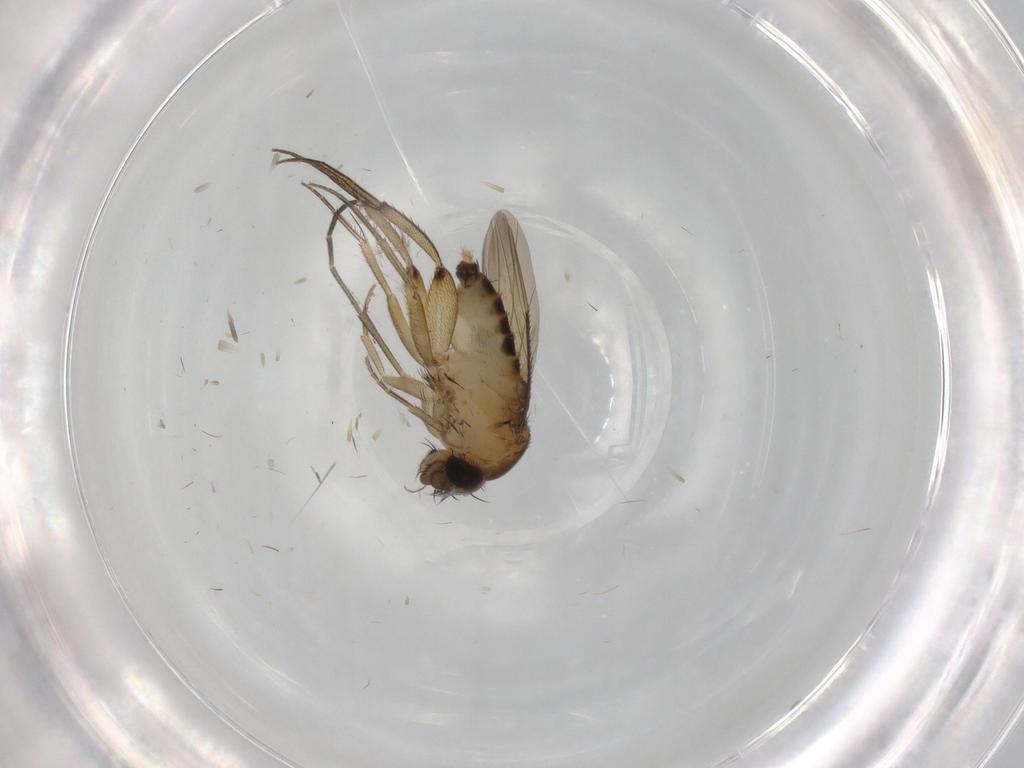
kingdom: Animalia
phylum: Arthropoda
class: Insecta
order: Diptera
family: Phoridae
